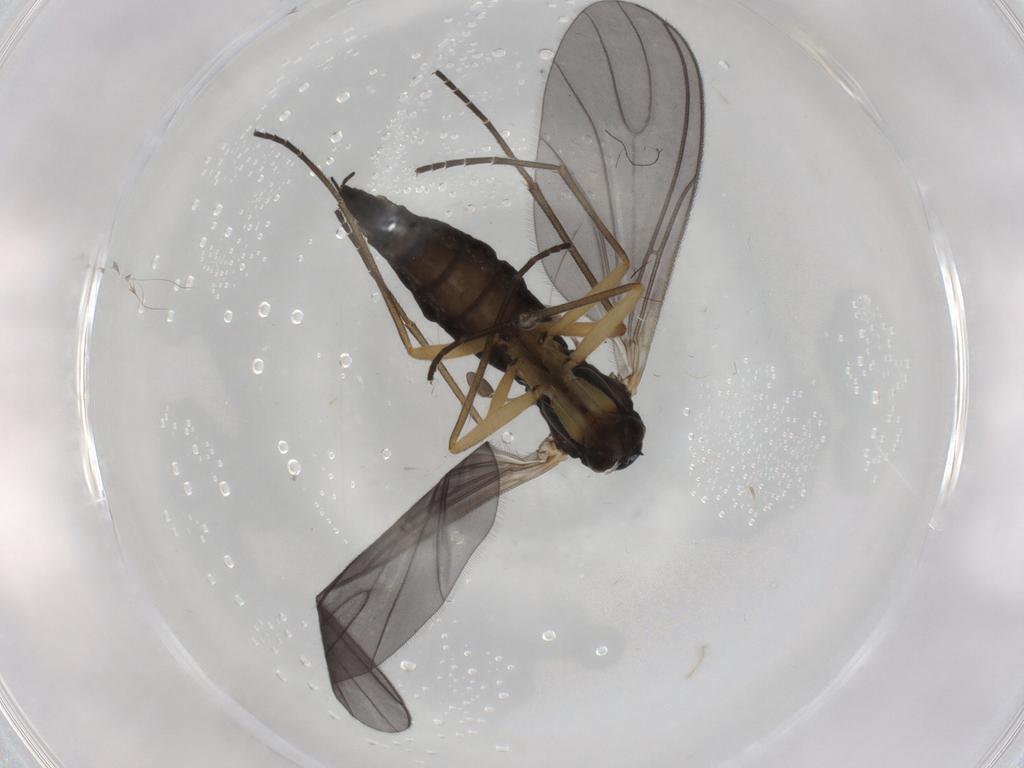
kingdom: Animalia
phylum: Arthropoda
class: Insecta
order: Diptera
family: Sciaridae
